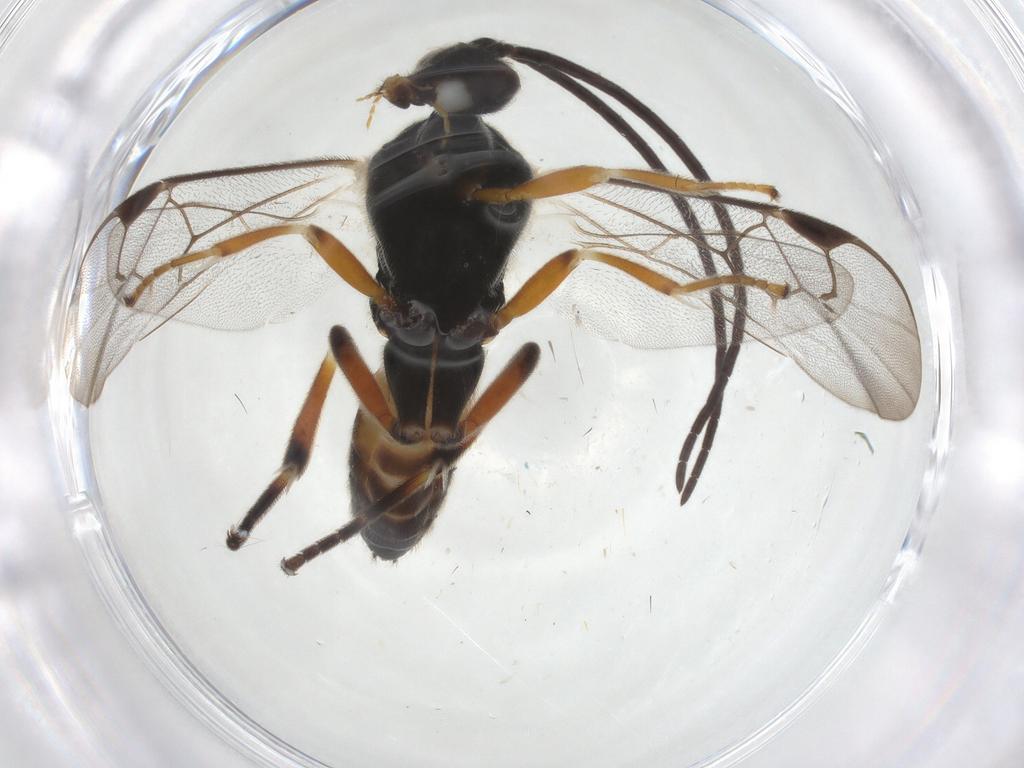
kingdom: Animalia
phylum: Arthropoda
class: Insecta
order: Hymenoptera
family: Braconidae
